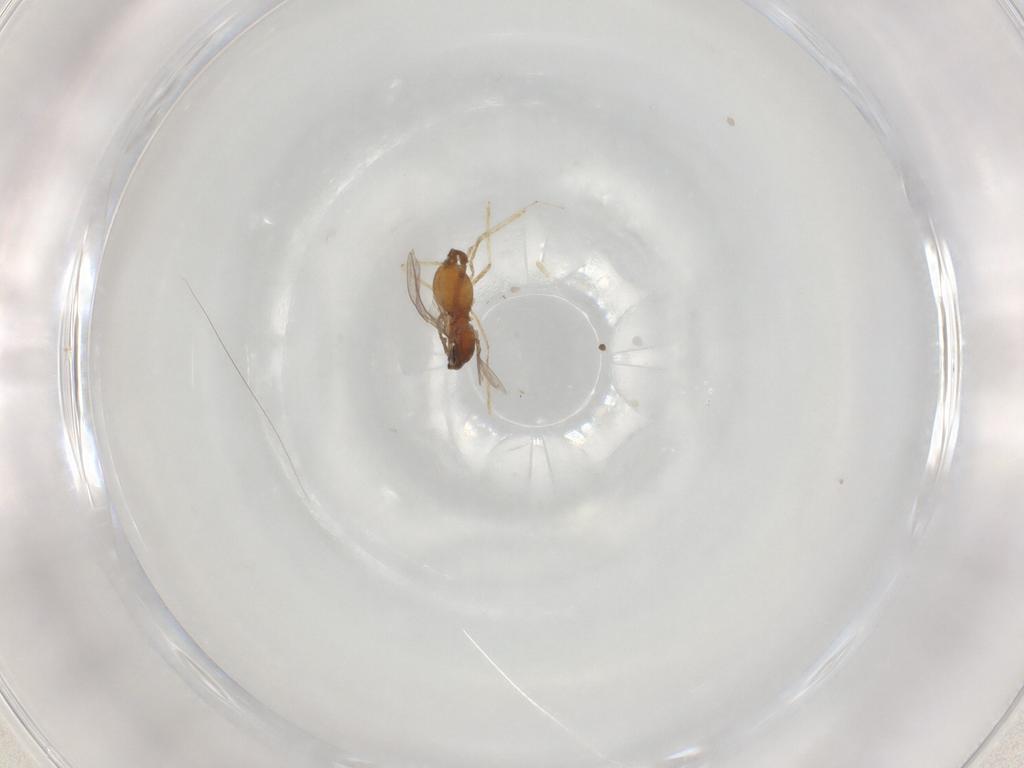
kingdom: Animalia
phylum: Arthropoda
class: Insecta
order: Diptera
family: Cecidomyiidae
